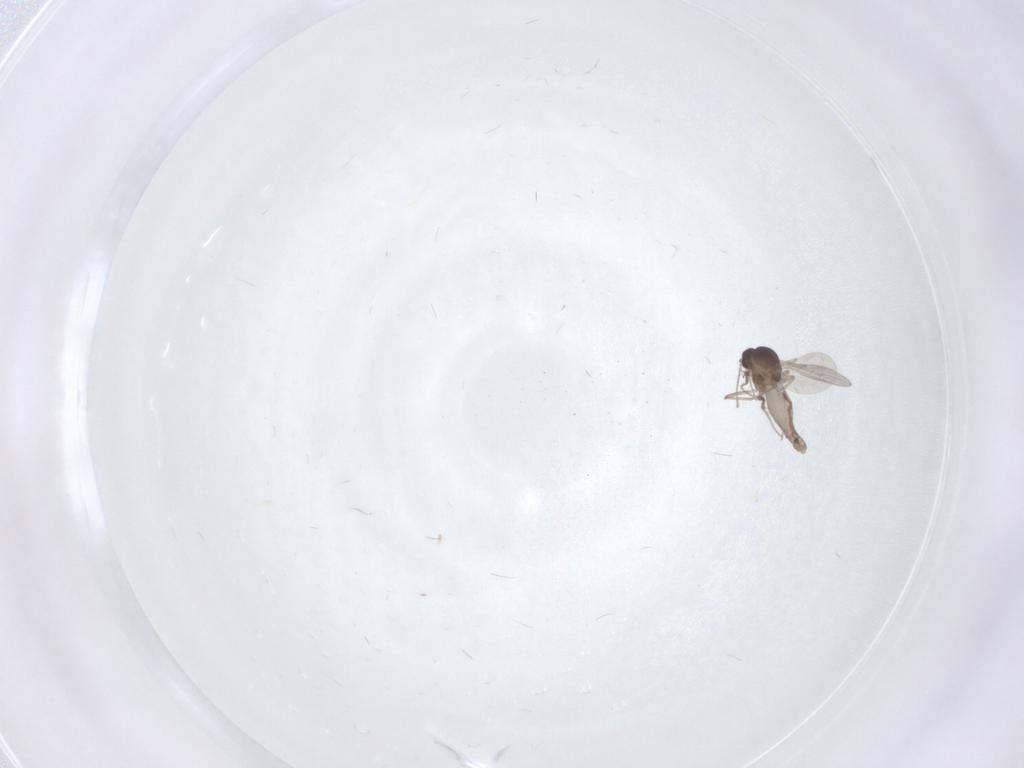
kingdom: Animalia
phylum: Arthropoda
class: Insecta
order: Diptera
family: Cecidomyiidae
